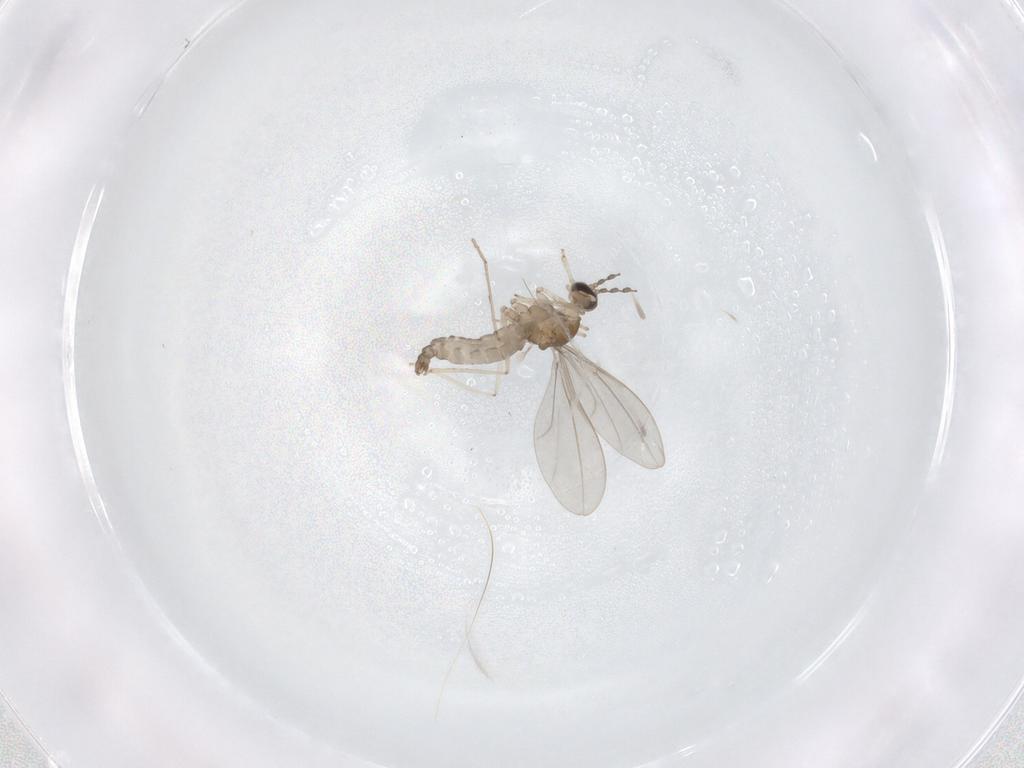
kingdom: Animalia
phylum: Arthropoda
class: Insecta
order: Diptera
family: Cecidomyiidae
